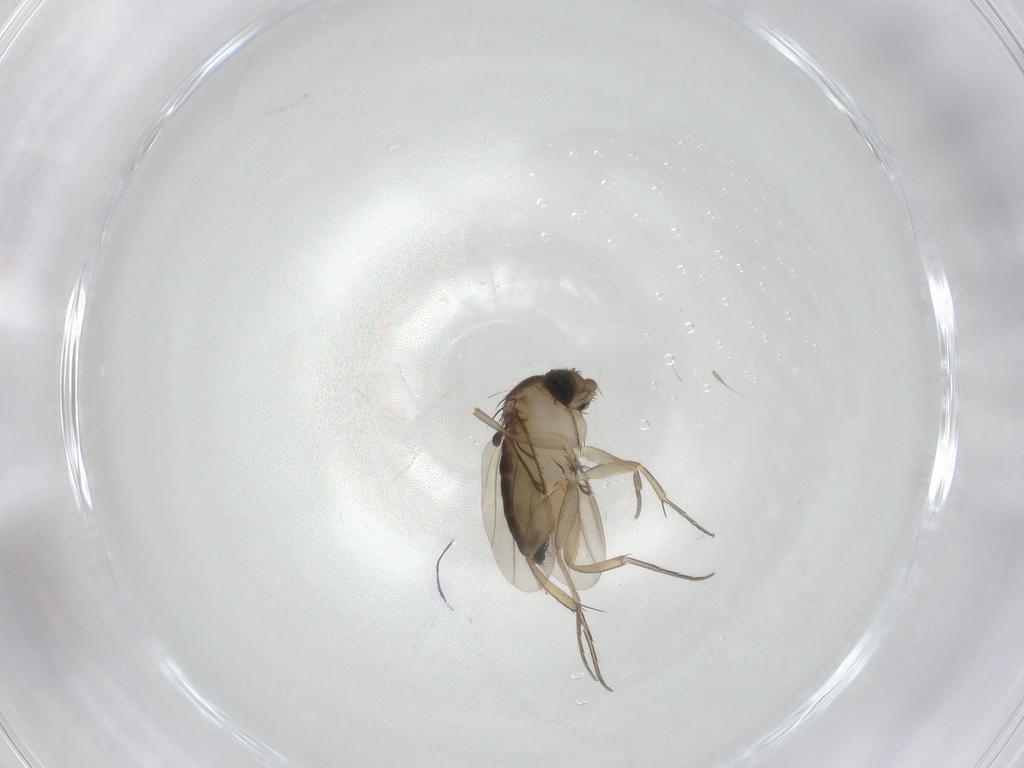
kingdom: Animalia
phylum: Arthropoda
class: Insecta
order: Diptera
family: Phoridae
